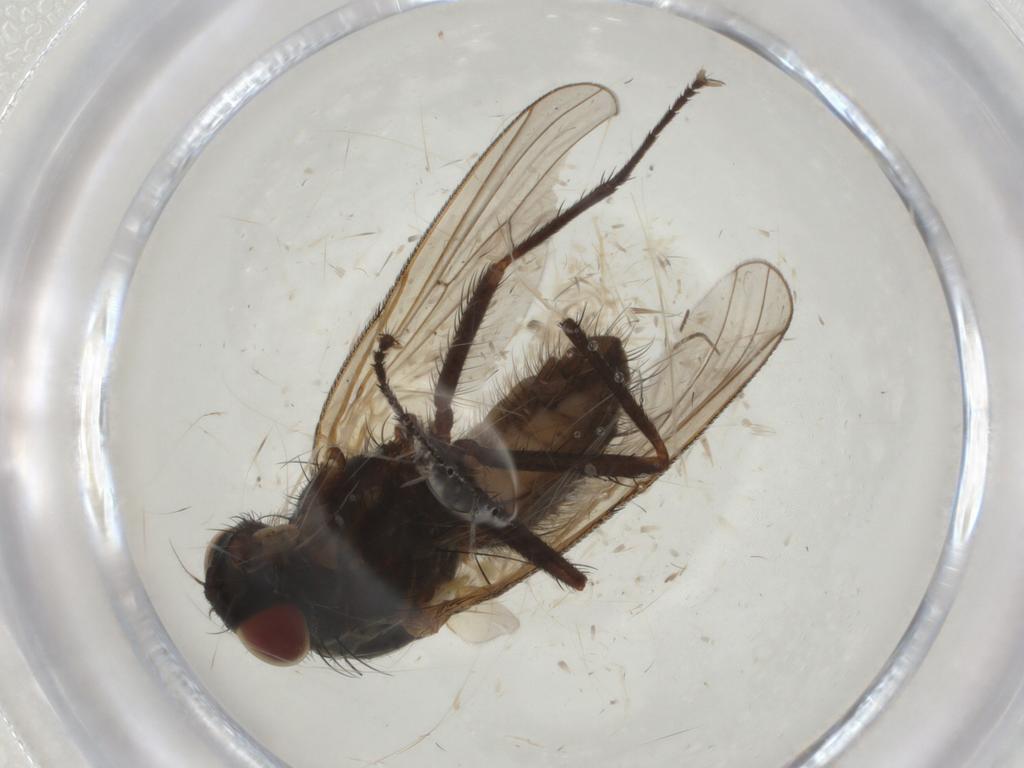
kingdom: Animalia
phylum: Arthropoda
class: Insecta
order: Diptera
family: Anthomyiidae
